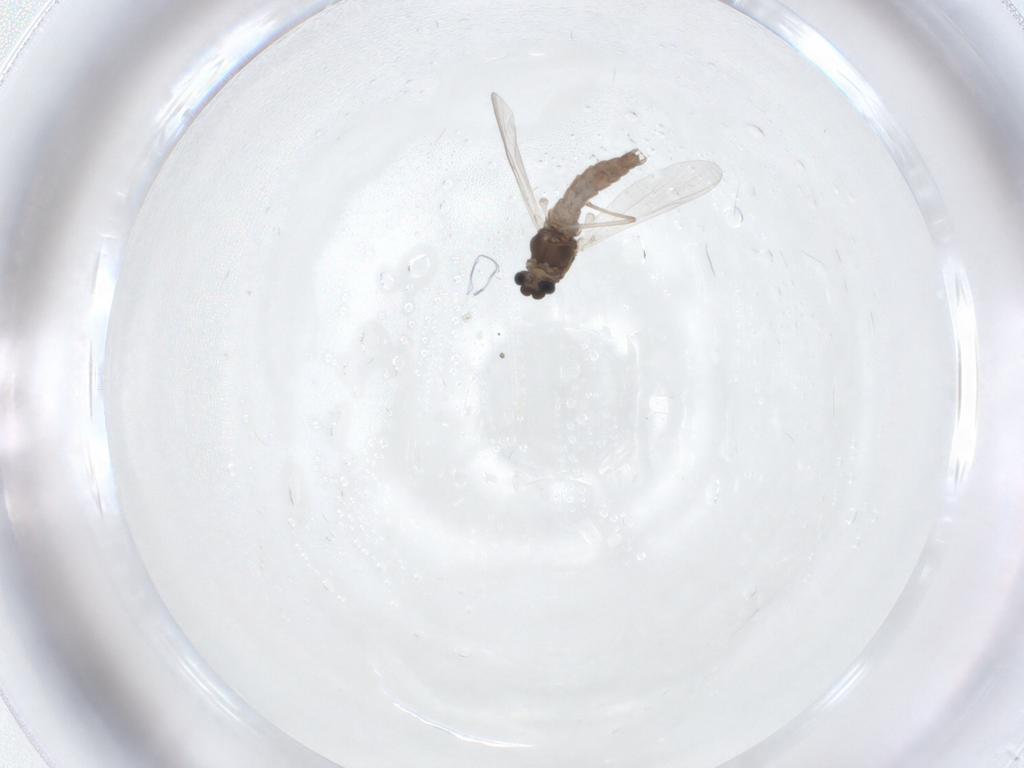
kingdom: Animalia
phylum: Arthropoda
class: Insecta
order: Diptera
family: Chironomidae
